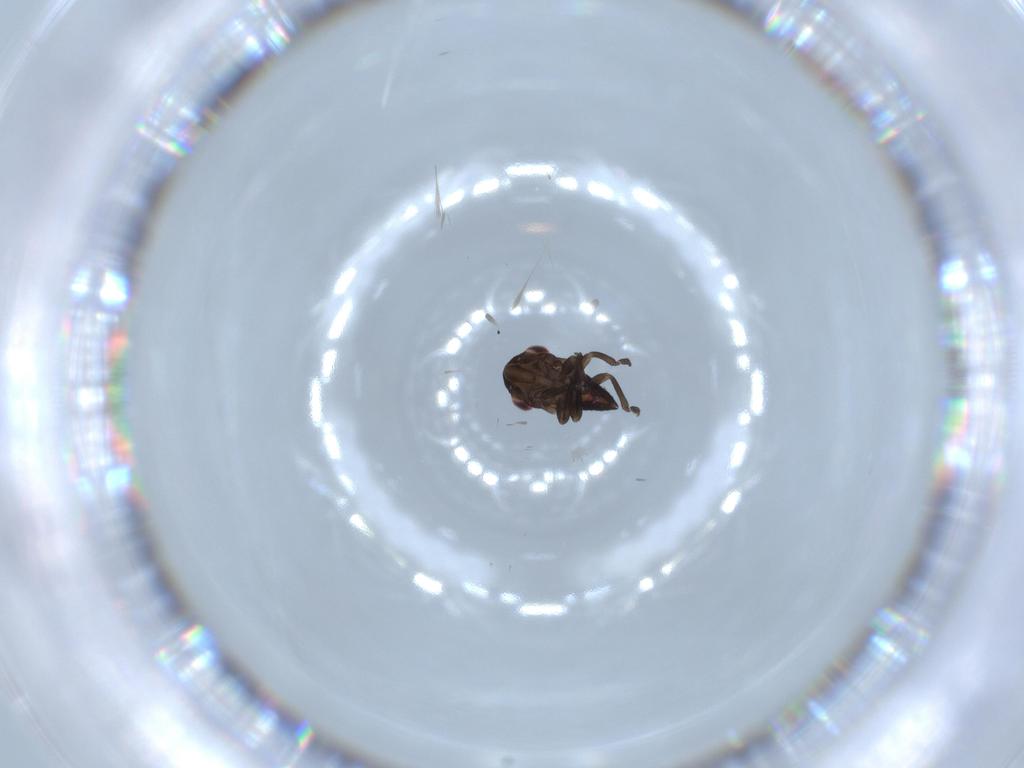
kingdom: Animalia
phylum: Arthropoda
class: Insecta
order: Hemiptera
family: Cicadellidae
